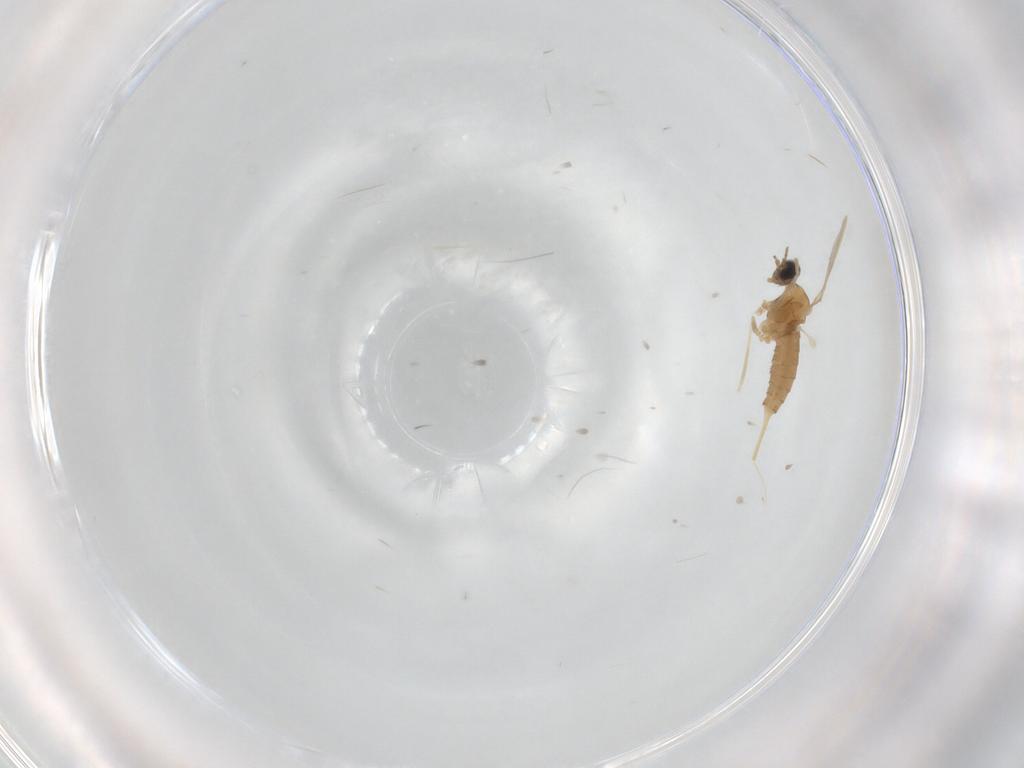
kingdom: Animalia
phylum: Arthropoda
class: Insecta
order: Diptera
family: Cecidomyiidae
